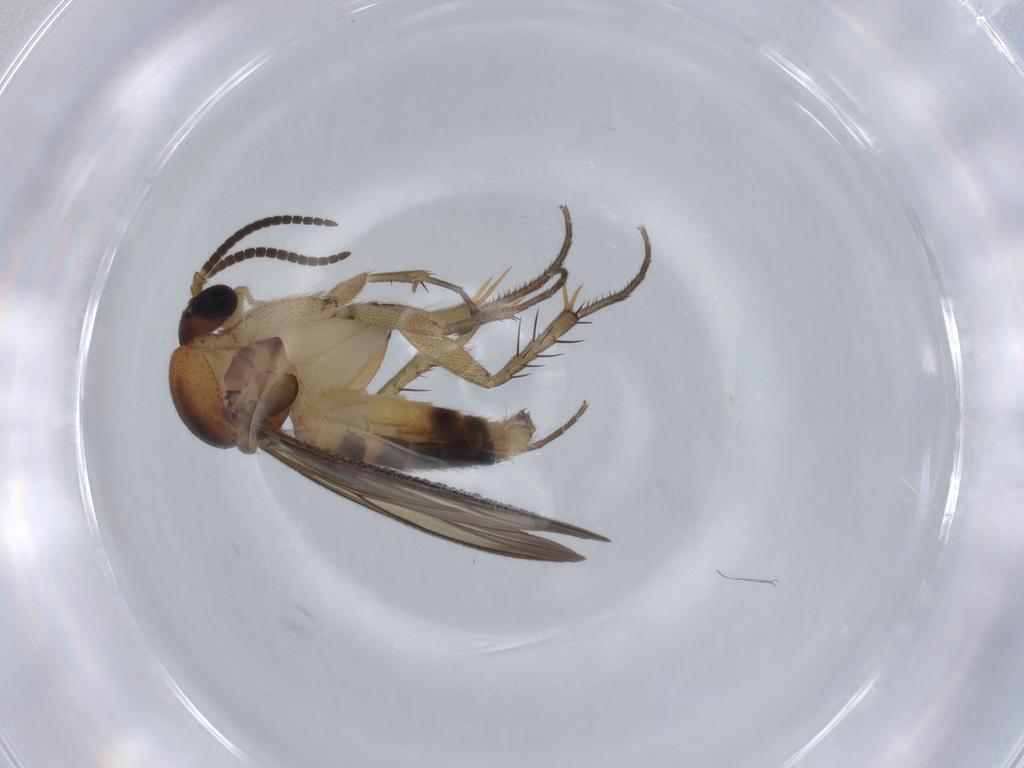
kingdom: Animalia
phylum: Arthropoda
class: Insecta
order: Diptera
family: Mycetophilidae
